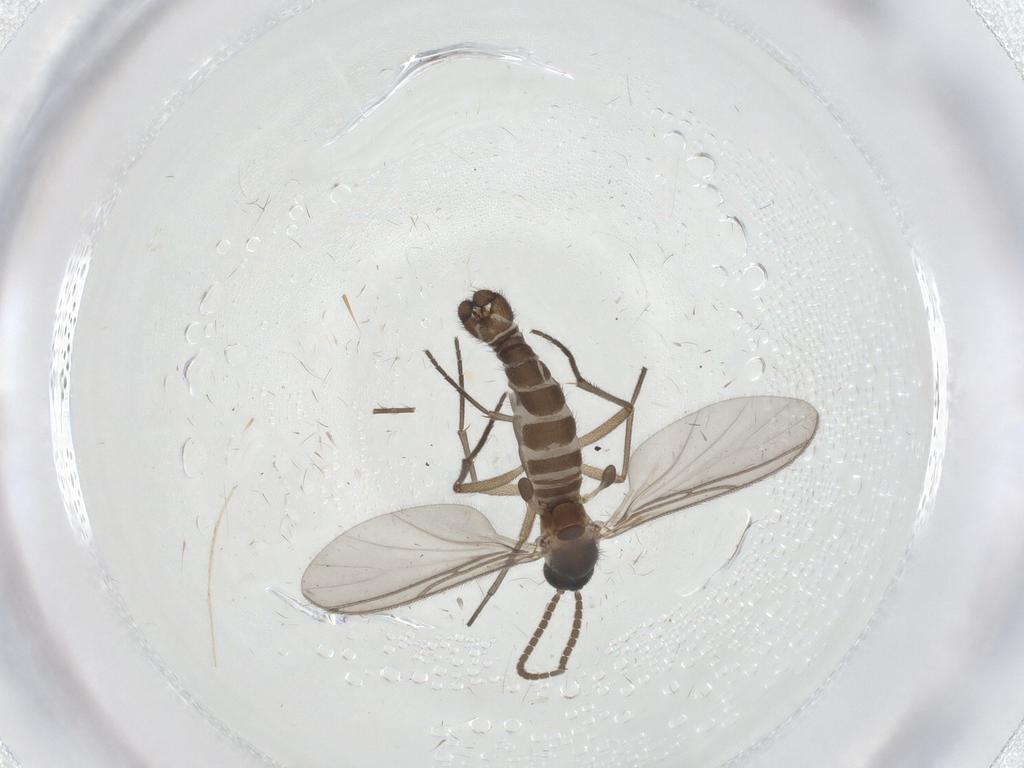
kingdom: Animalia
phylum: Arthropoda
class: Insecta
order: Diptera
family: Limoniidae
